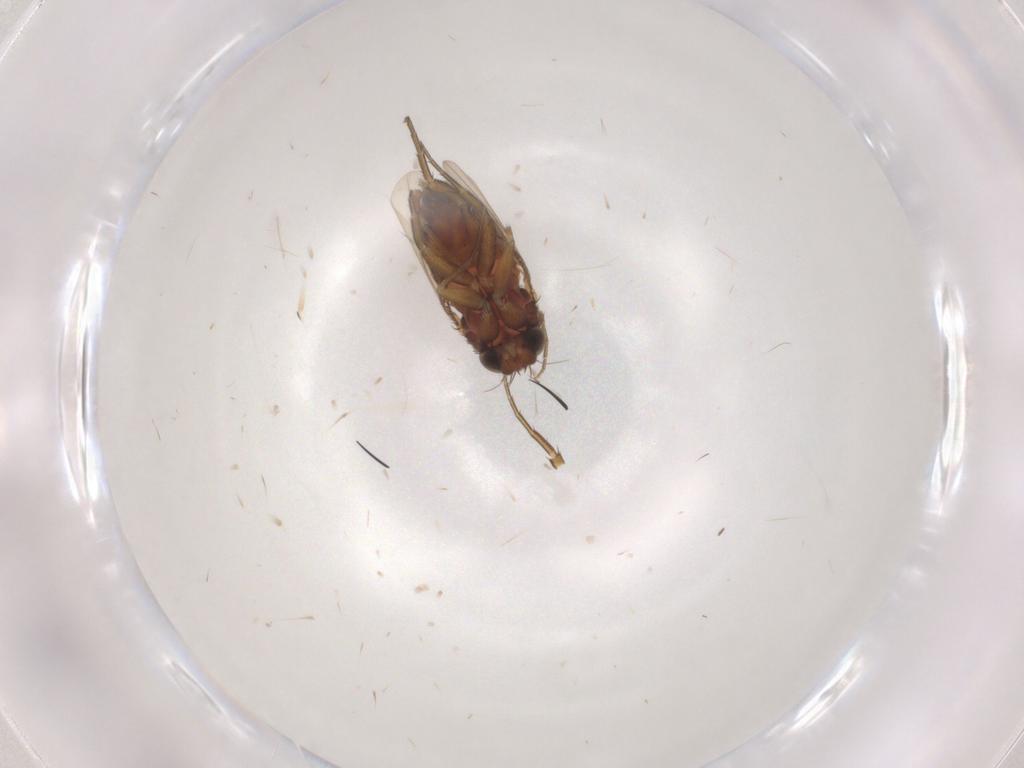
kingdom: Animalia
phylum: Arthropoda
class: Insecta
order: Diptera
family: Phoridae
